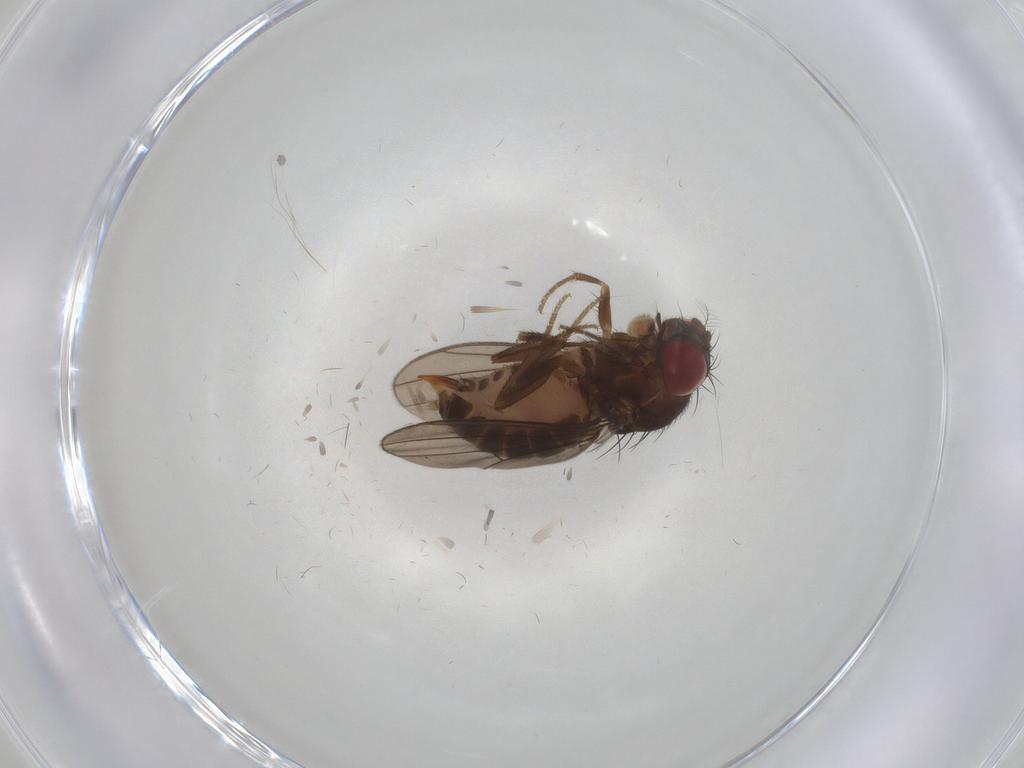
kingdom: Animalia
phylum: Arthropoda
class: Insecta
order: Diptera
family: Drosophilidae
